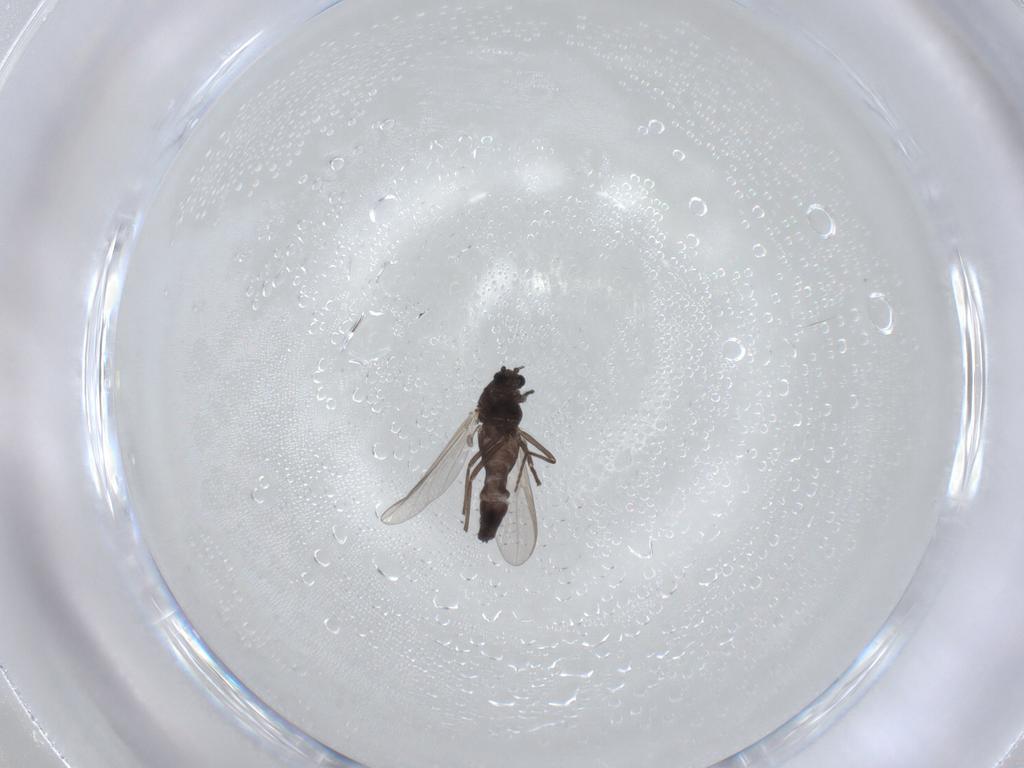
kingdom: Animalia
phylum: Arthropoda
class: Insecta
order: Diptera
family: Chironomidae
